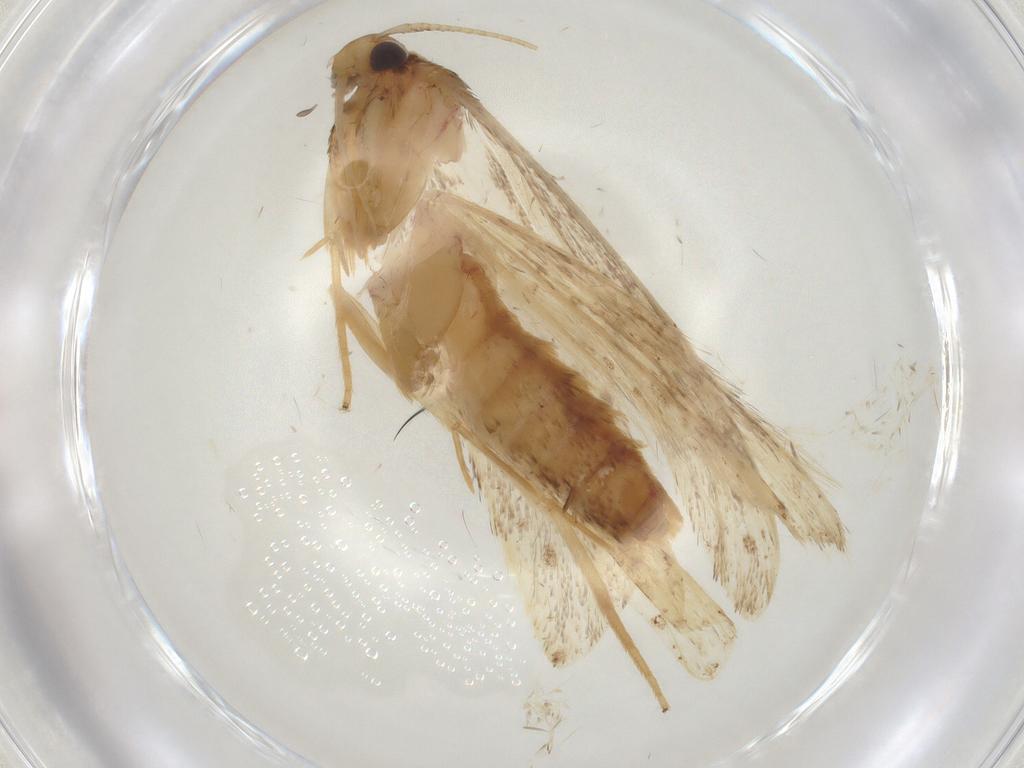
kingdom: Animalia
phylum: Arthropoda
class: Insecta
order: Lepidoptera
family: Lecithoceridae
